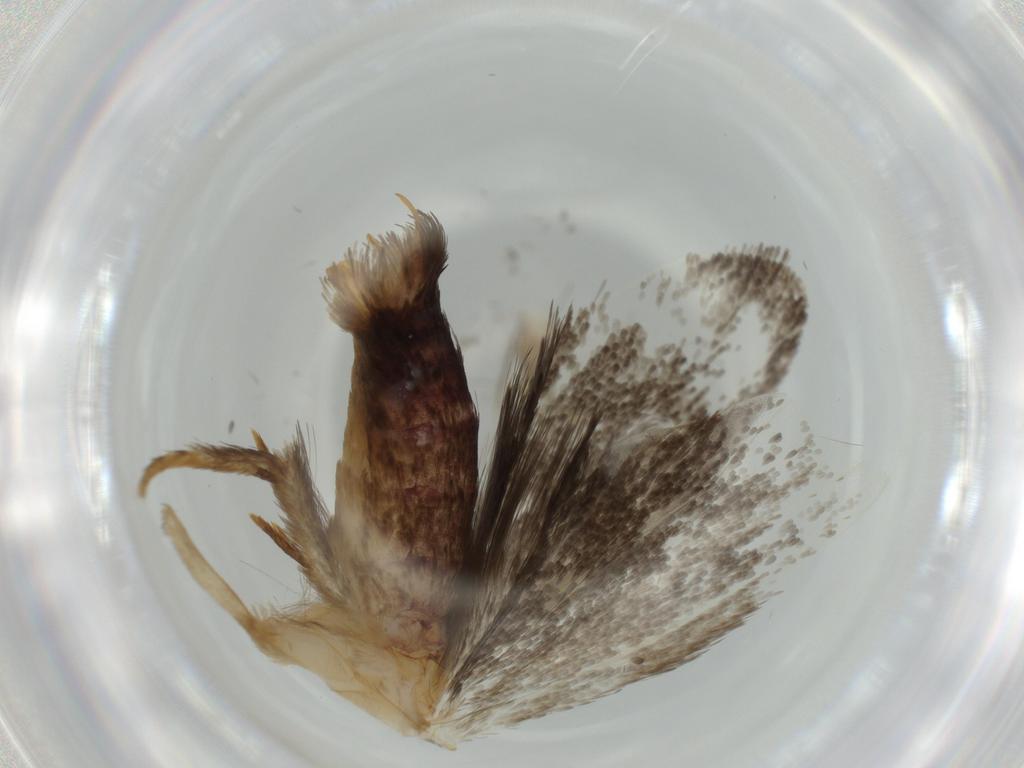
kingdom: Animalia
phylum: Arthropoda
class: Insecta
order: Lepidoptera
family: Tineidae
